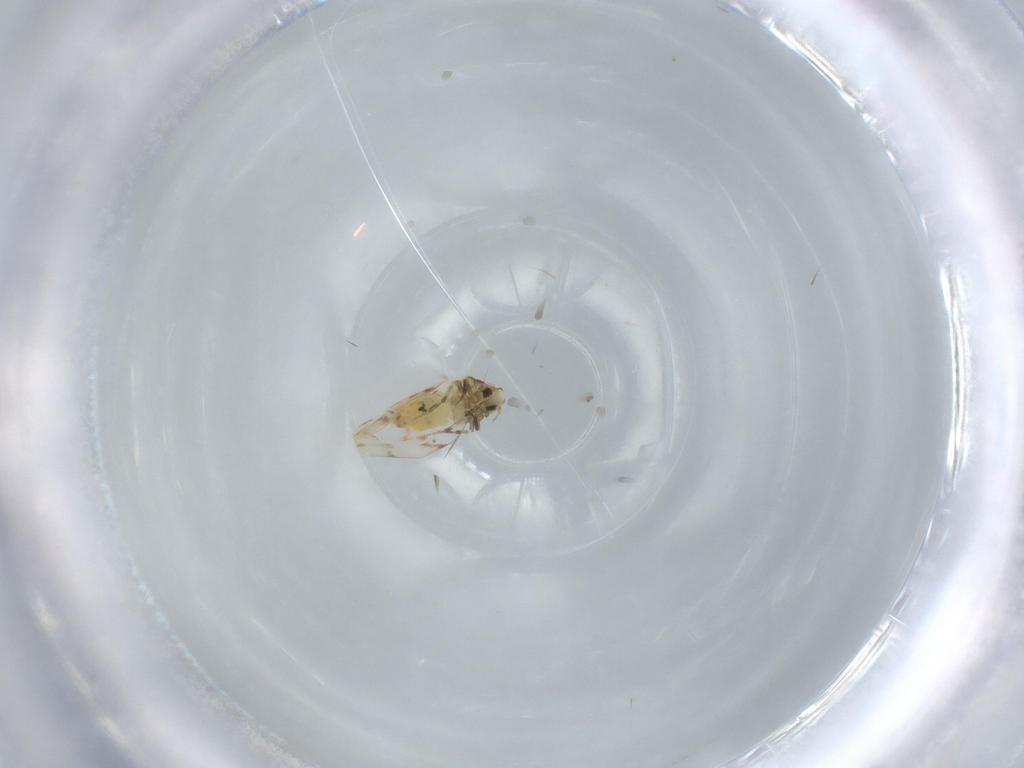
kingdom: Animalia
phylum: Arthropoda
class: Insecta
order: Hemiptera
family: Aleyrodidae
